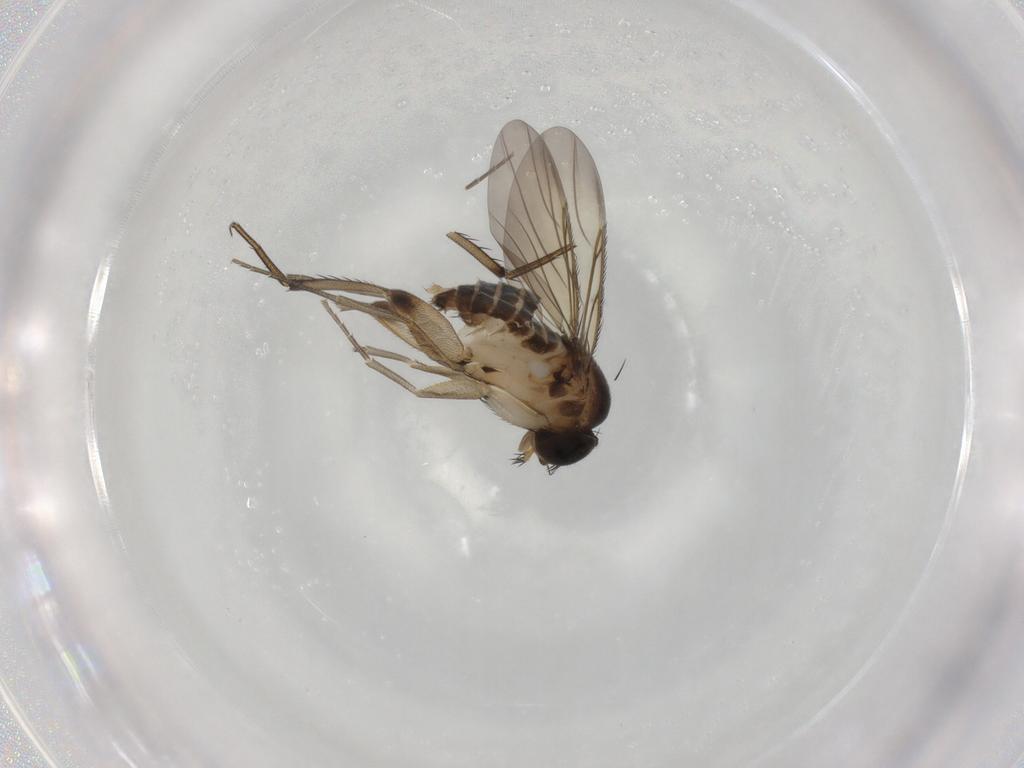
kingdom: Animalia
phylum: Arthropoda
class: Insecta
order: Diptera
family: Phoridae
